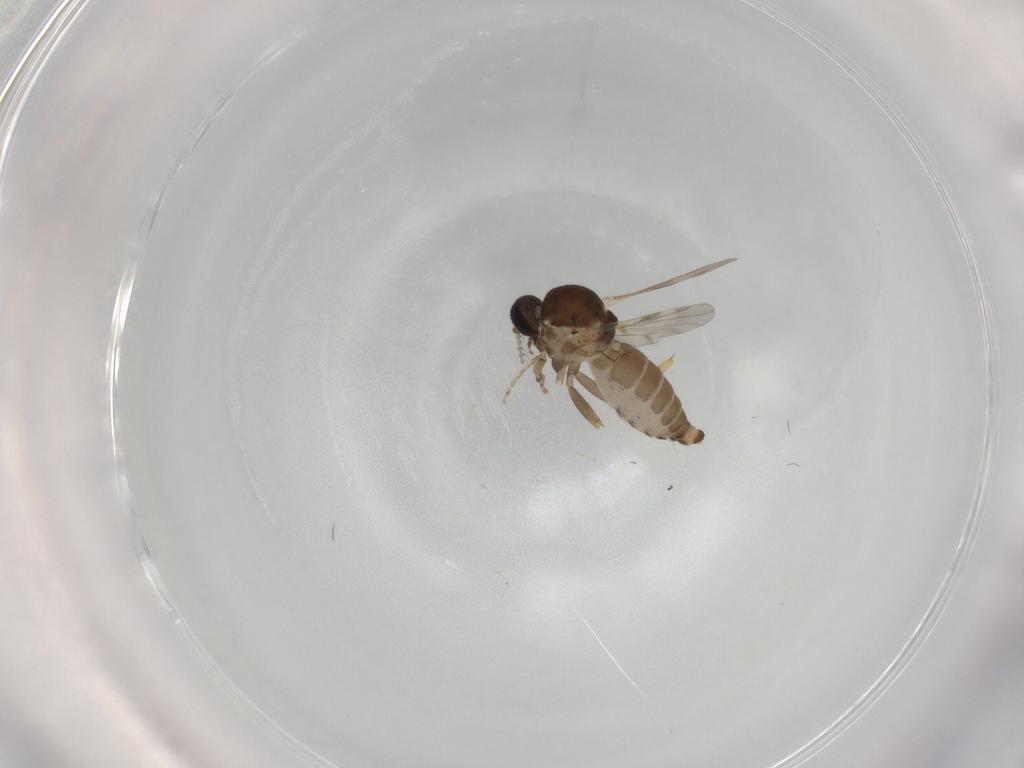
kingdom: Animalia
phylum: Arthropoda
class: Insecta
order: Diptera
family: Ceratopogonidae
